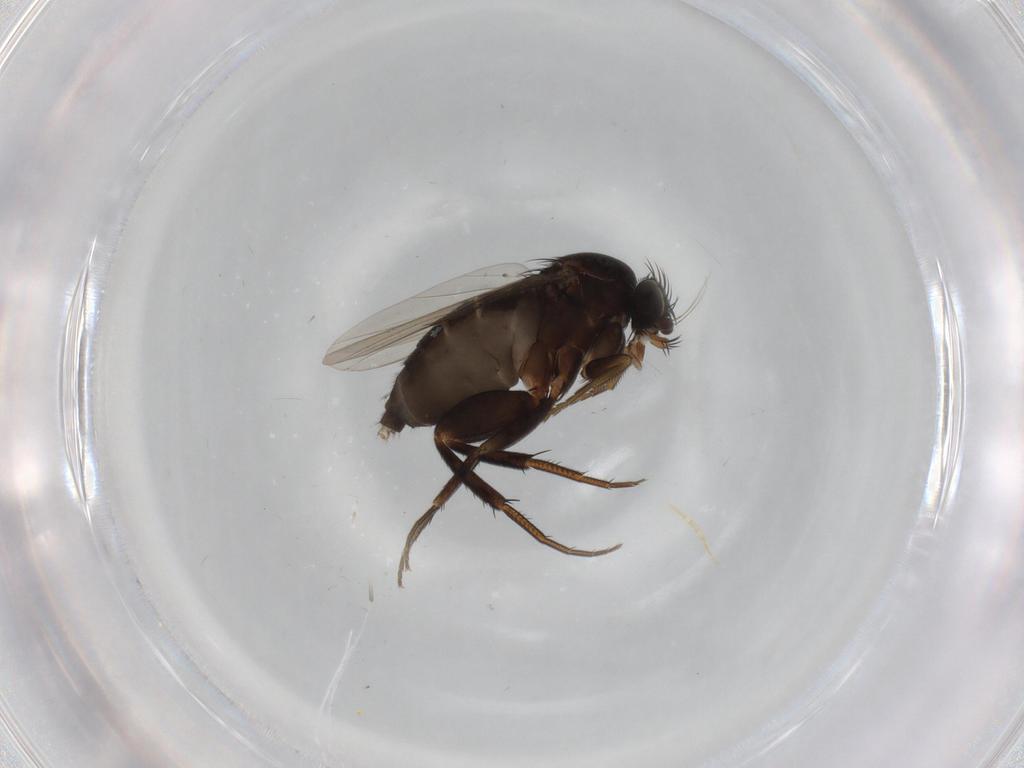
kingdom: Animalia
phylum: Arthropoda
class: Insecta
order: Diptera
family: Phoridae
